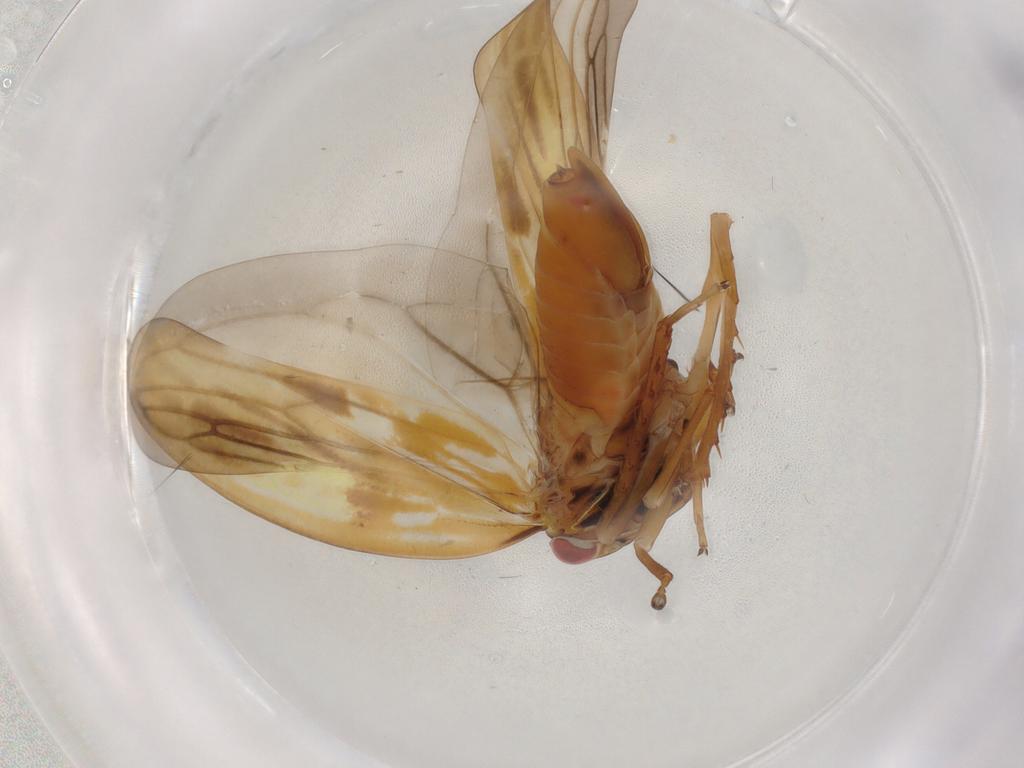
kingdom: Animalia
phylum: Arthropoda
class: Insecta
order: Hemiptera
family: Cicadellidae
